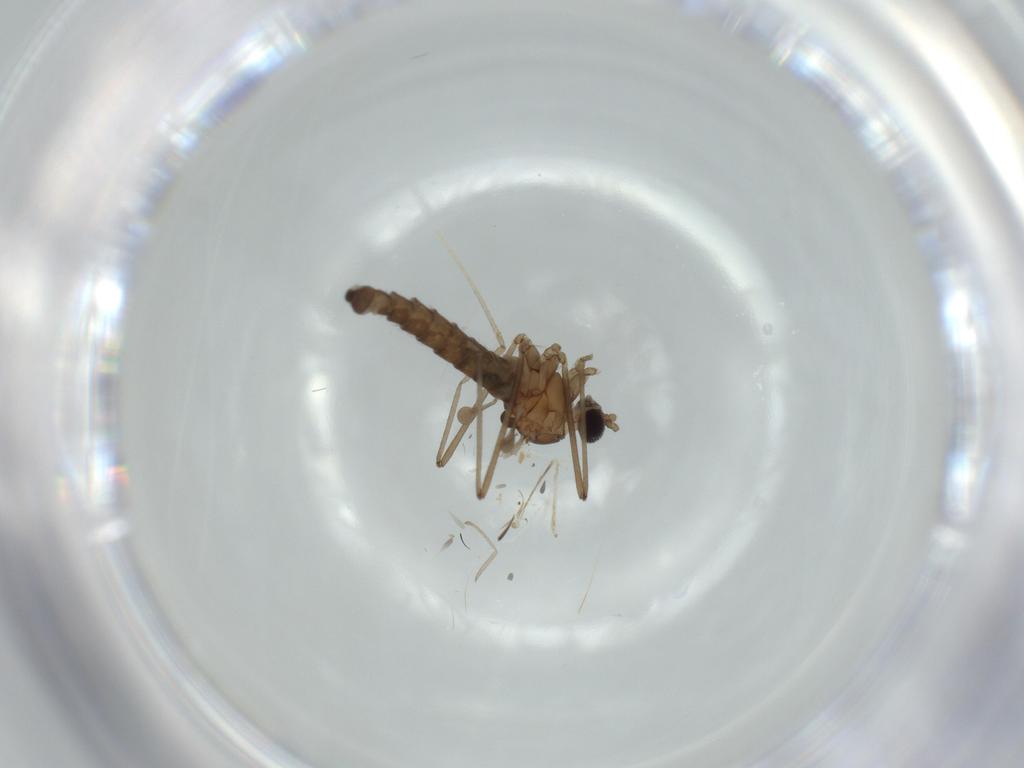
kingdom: Animalia
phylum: Arthropoda
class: Insecta
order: Diptera
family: Cecidomyiidae
